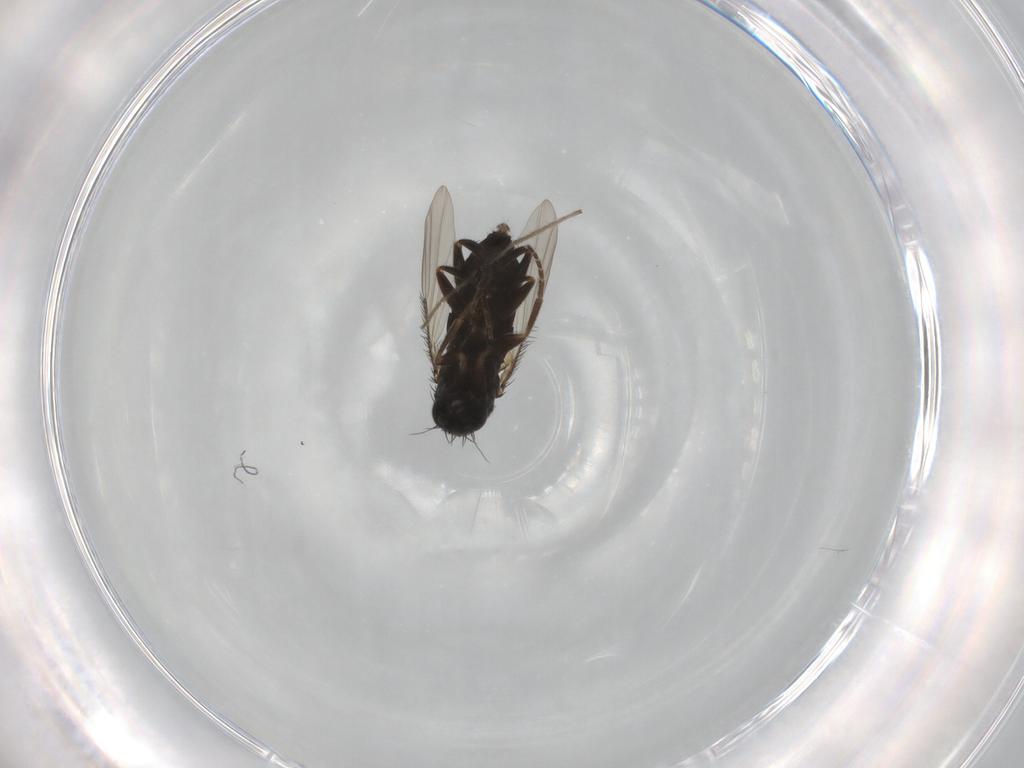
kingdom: Animalia
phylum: Arthropoda
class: Insecta
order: Diptera
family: Phoridae
